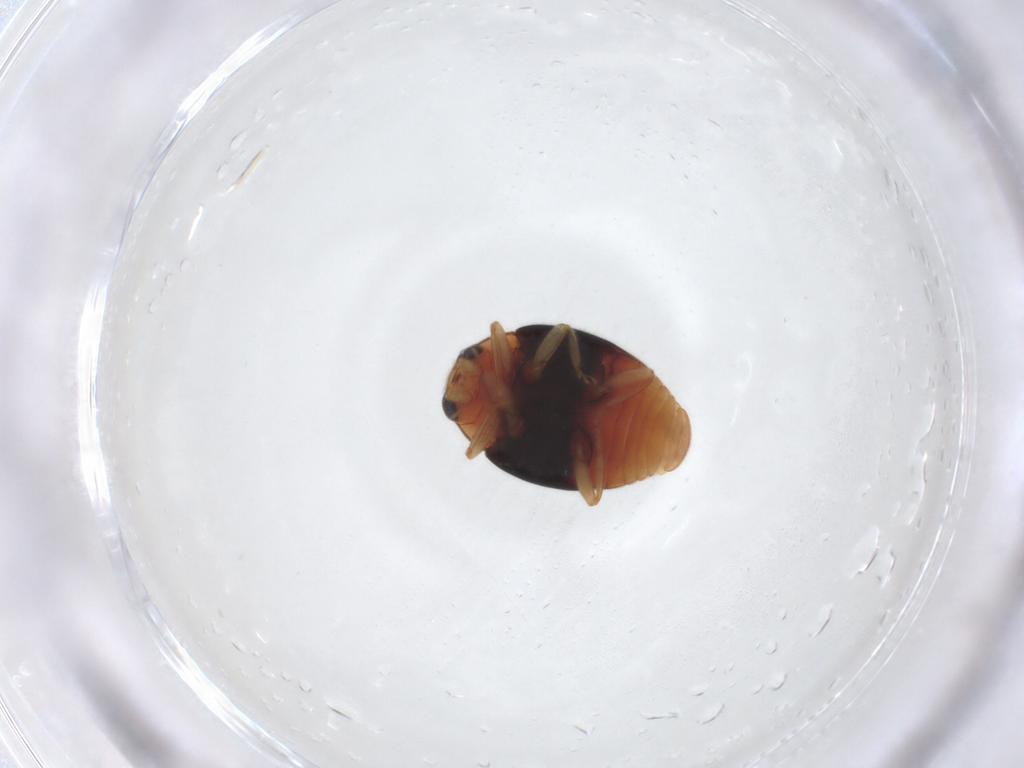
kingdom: Animalia
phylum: Arthropoda
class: Insecta
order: Coleoptera
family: Coccinellidae
